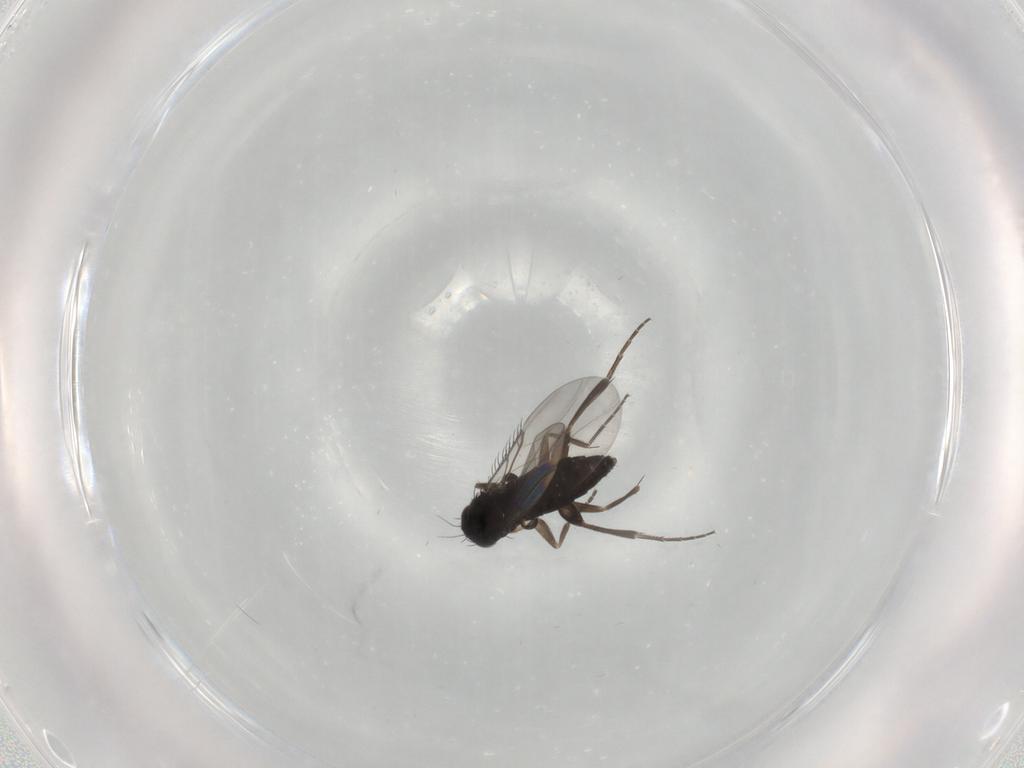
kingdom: Animalia
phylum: Arthropoda
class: Insecta
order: Diptera
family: Phoridae
